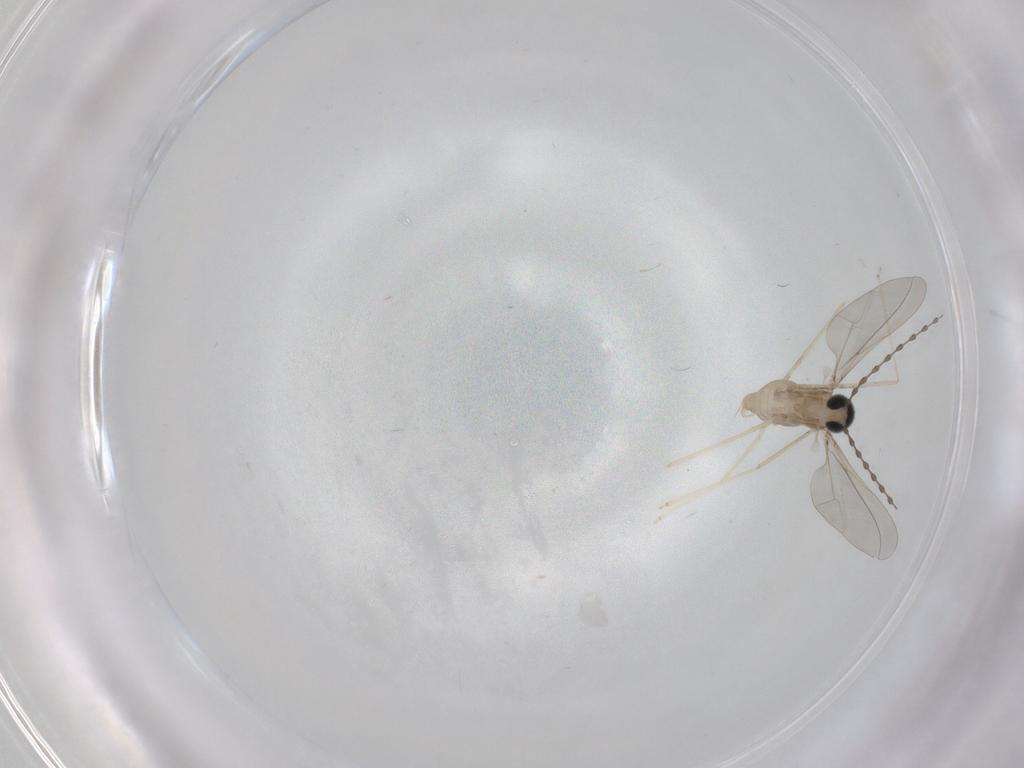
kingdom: Animalia
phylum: Arthropoda
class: Insecta
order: Diptera
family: Cecidomyiidae
